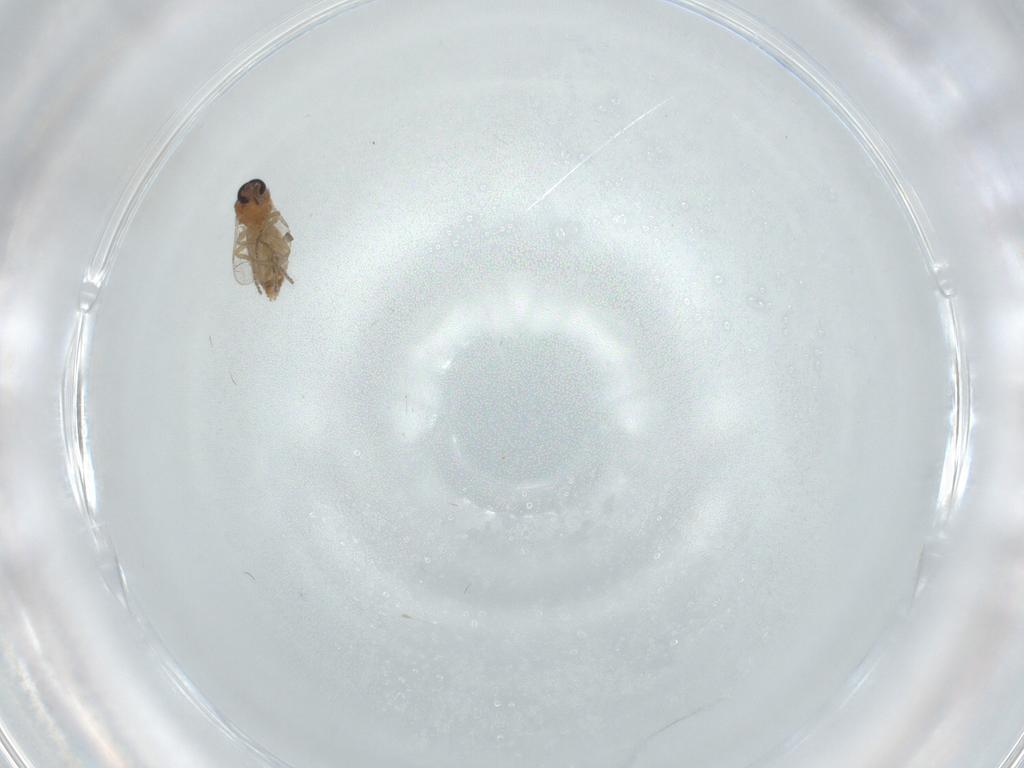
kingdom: Animalia
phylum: Arthropoda
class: Insecta
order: Diptera
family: Ceratopogonidae
